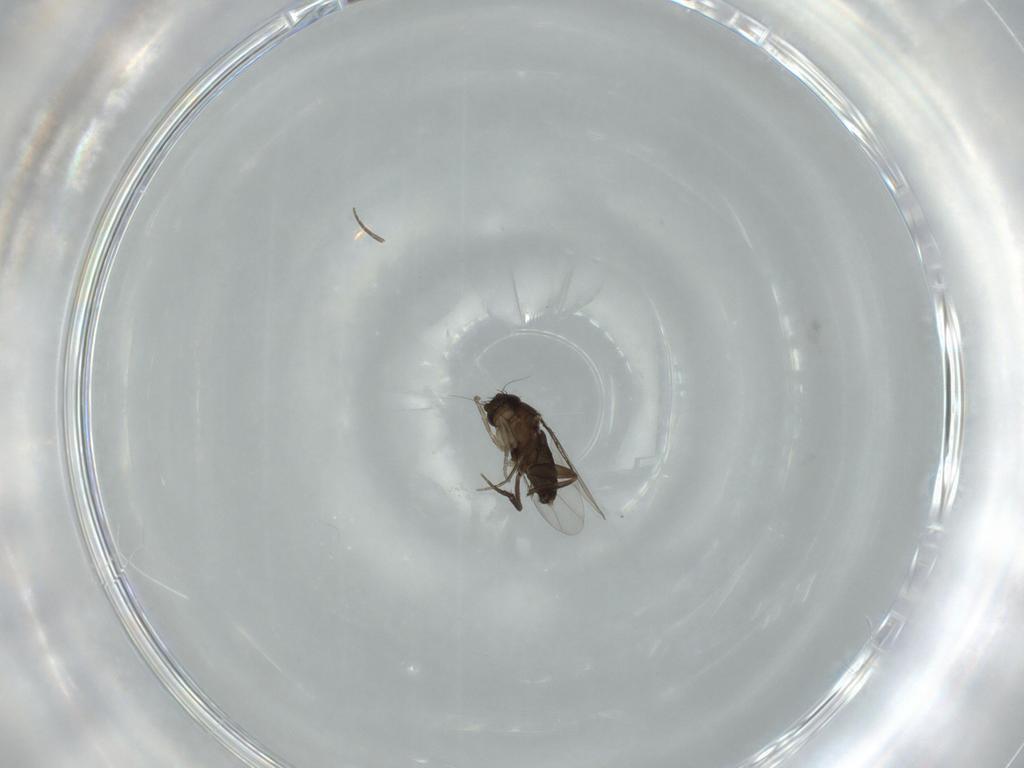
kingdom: Animalia
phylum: Arthropoda
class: Insecta
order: Diptera
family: Phoridae
